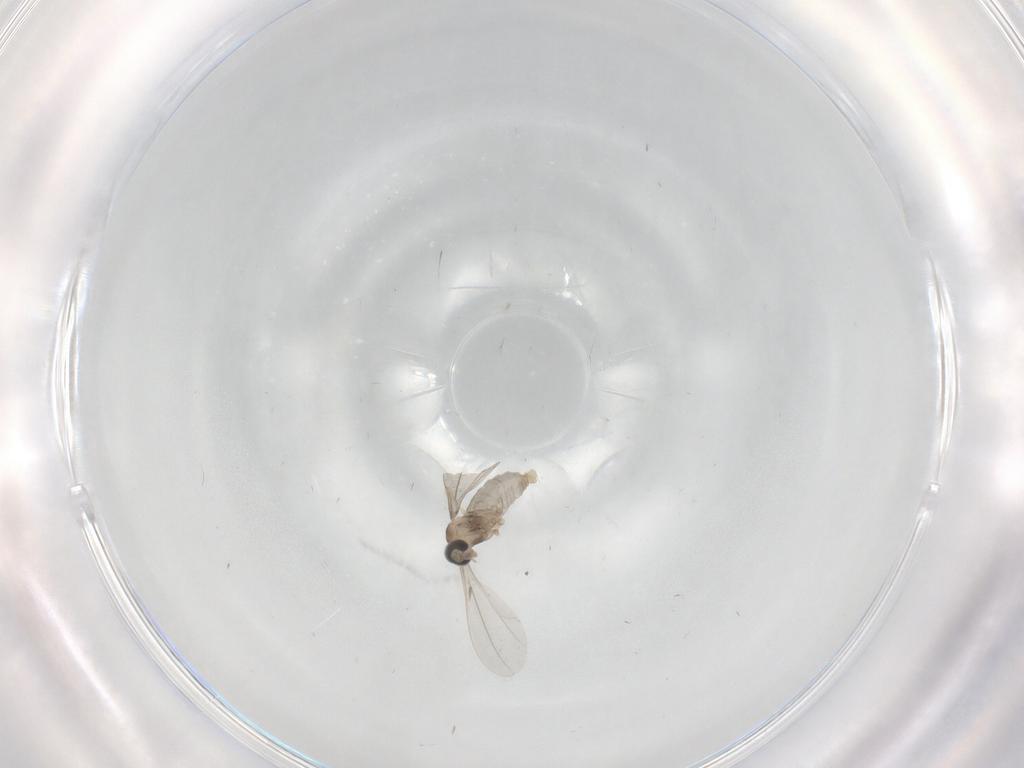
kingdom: Animalia
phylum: Arthropoda
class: Insecta
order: Diptera
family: Cecidomyiidae
